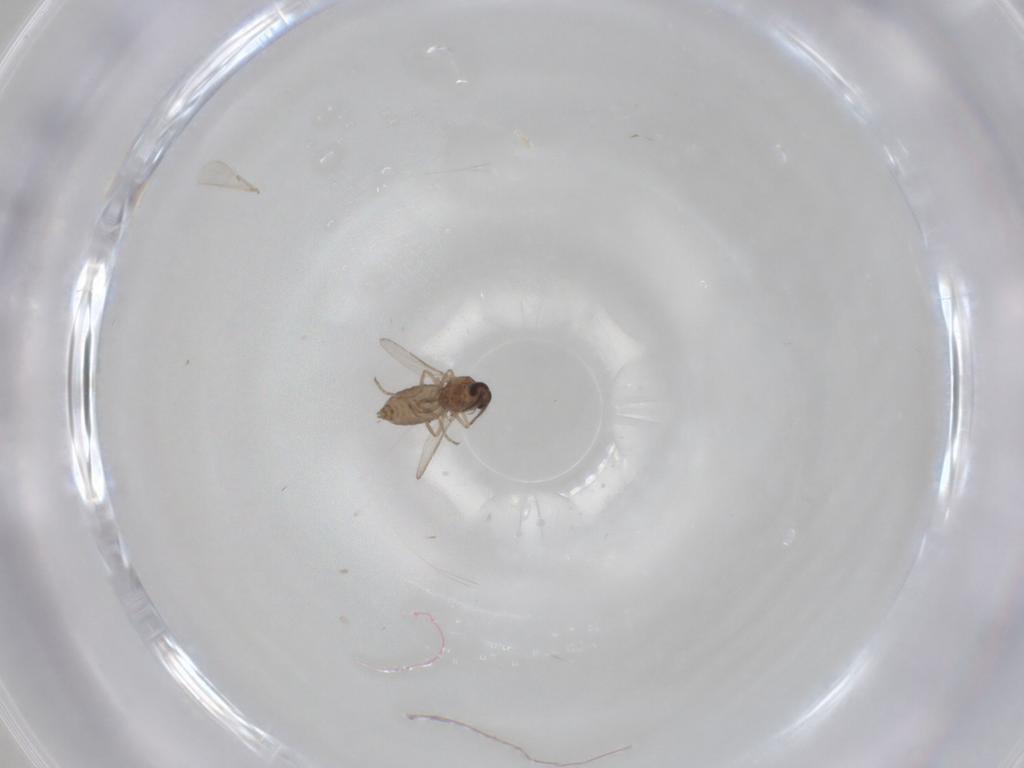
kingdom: Animalia
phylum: Arthropoda
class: Insecta
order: Diptera
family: Ceratopogonidae
